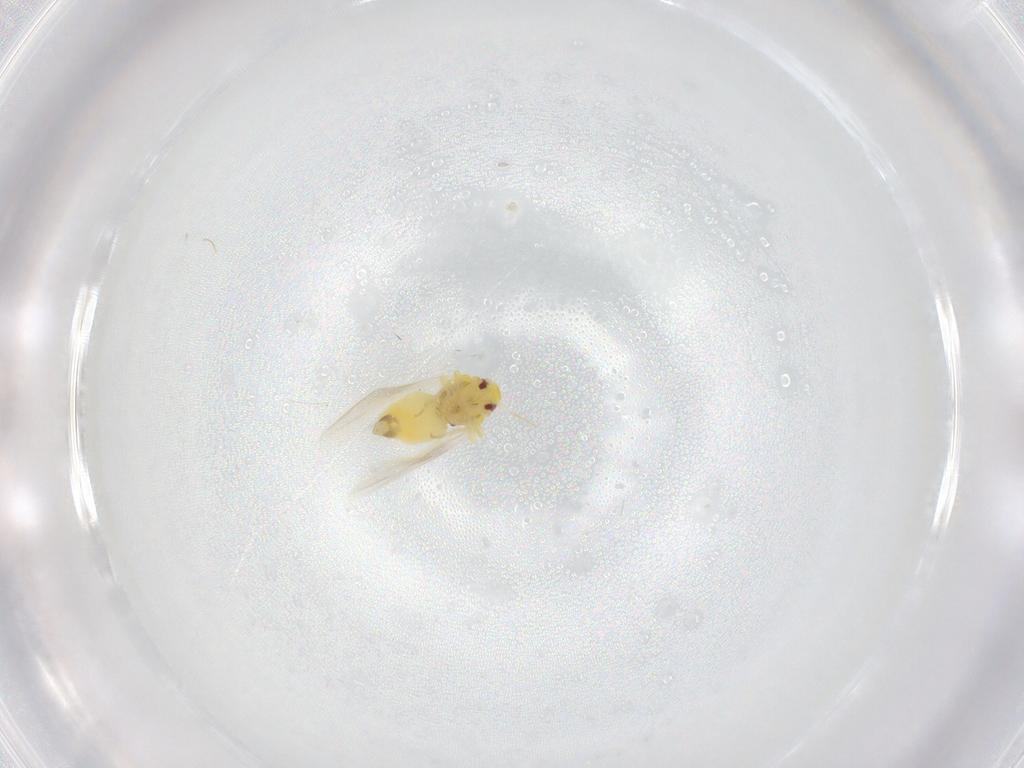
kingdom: Animalia
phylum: Arthropoda
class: Insecta
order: Hemiptera
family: Aleyrodidae
